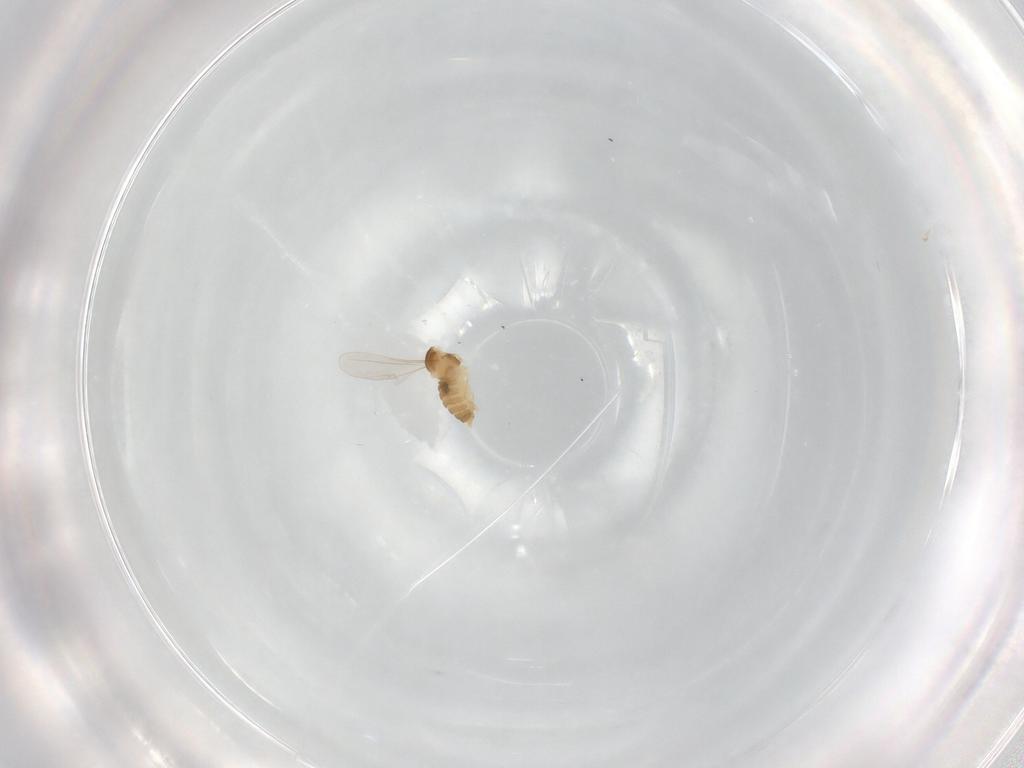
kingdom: Animalia
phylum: Arthropoda
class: Insecta
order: Diptera
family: Cecidomyiidae
